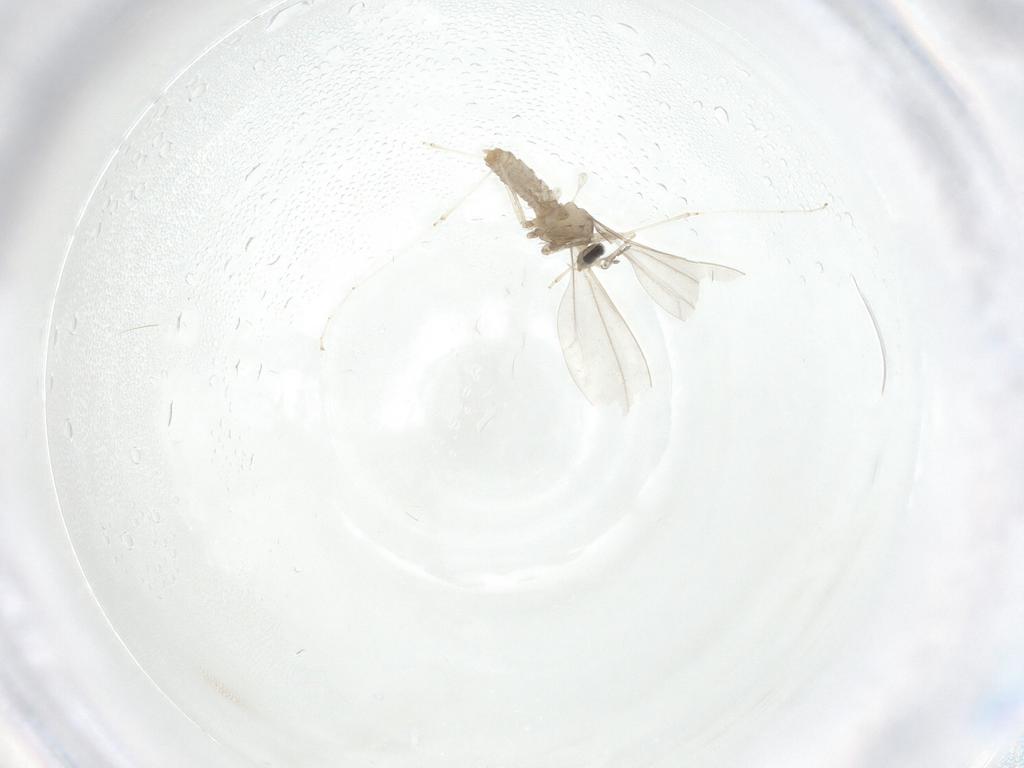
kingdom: Animalia
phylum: Arthropoda
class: Insecta
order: Diptera
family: Cecidomyiidae
